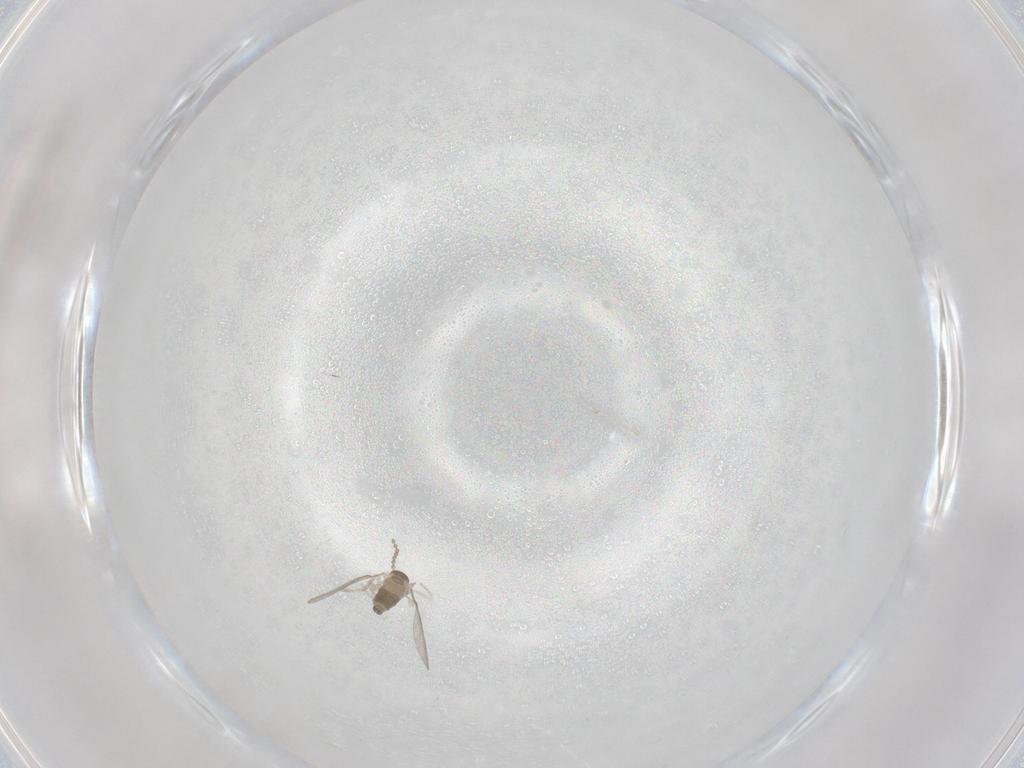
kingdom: Animalia
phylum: Arthropoda
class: Insecta
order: Diptera
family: Cecidomyiidae
